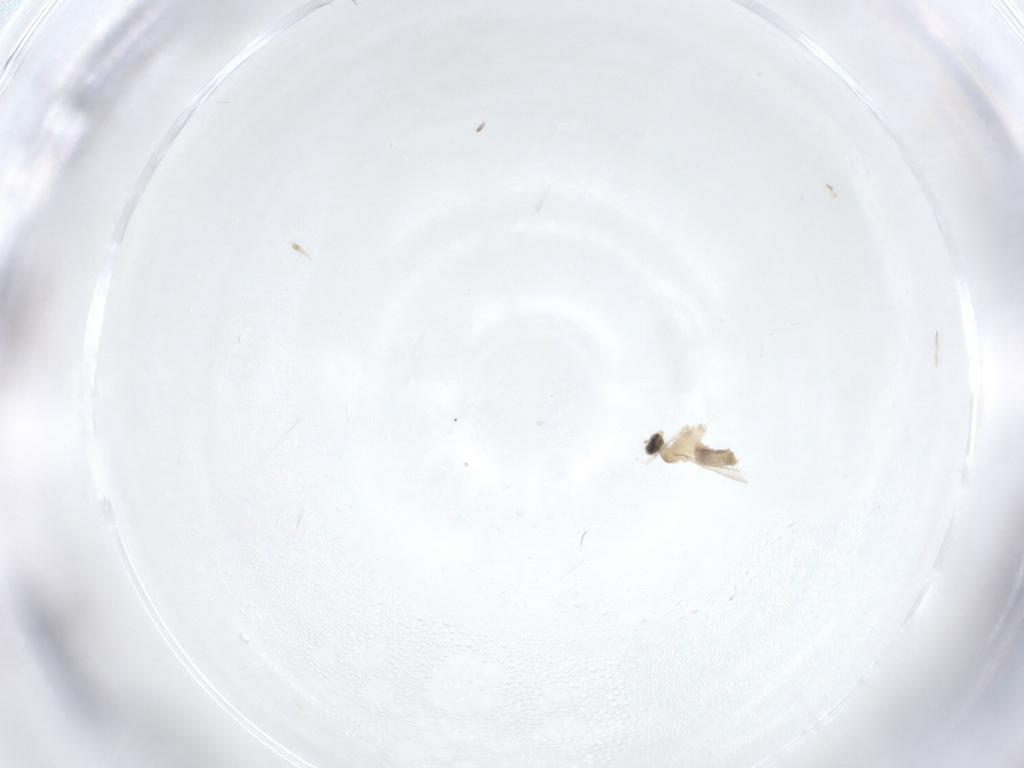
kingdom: Animalia
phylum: Arthropoda
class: Insecta
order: Diptera
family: Cecidomyiidae
